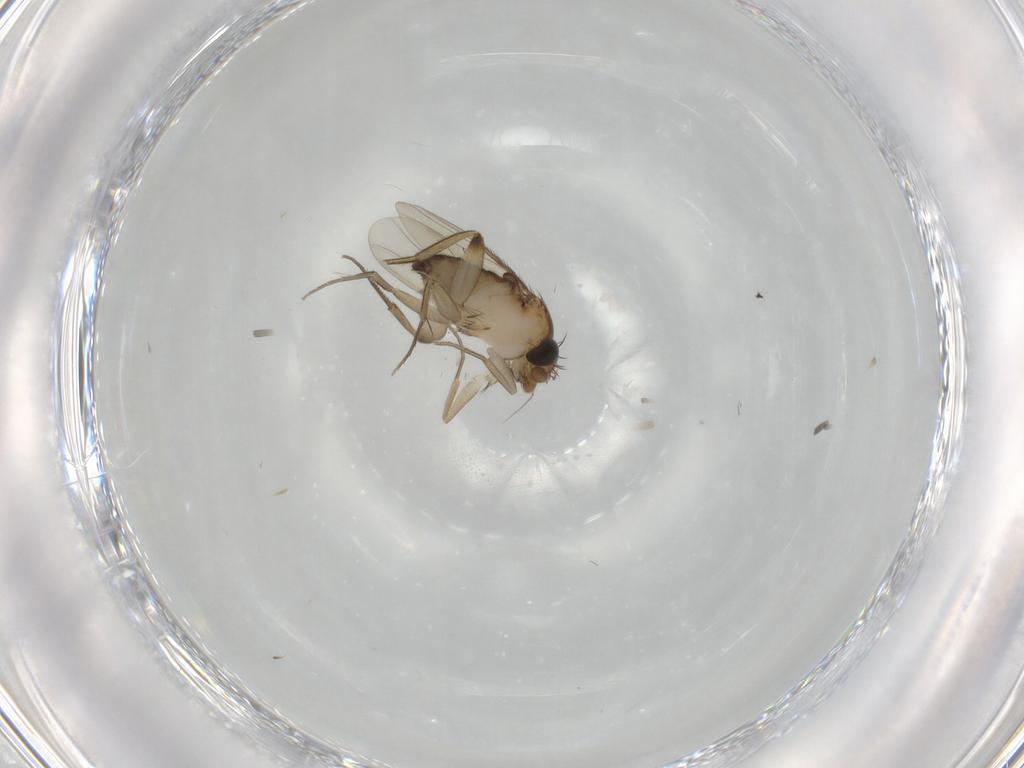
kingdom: Animalia
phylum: Arthropoda
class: Insecta
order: Diptera
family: Phoridae
